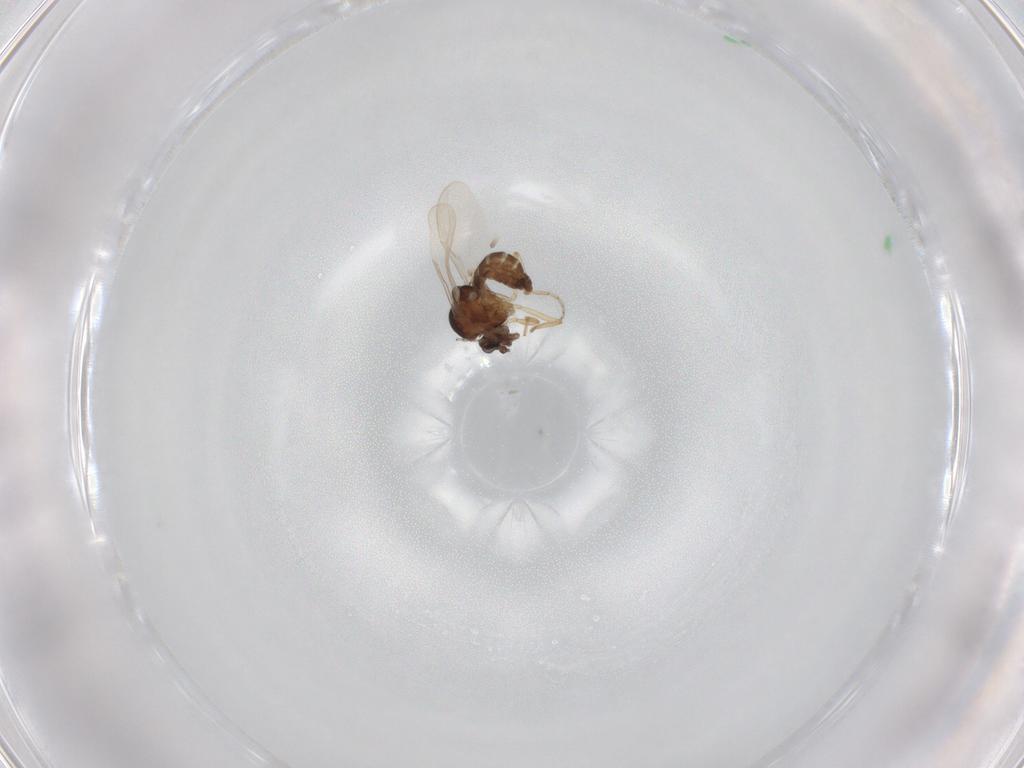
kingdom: Animalia
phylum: Arthropoda
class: Insecta
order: Diptera
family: Ceratopogonidae
